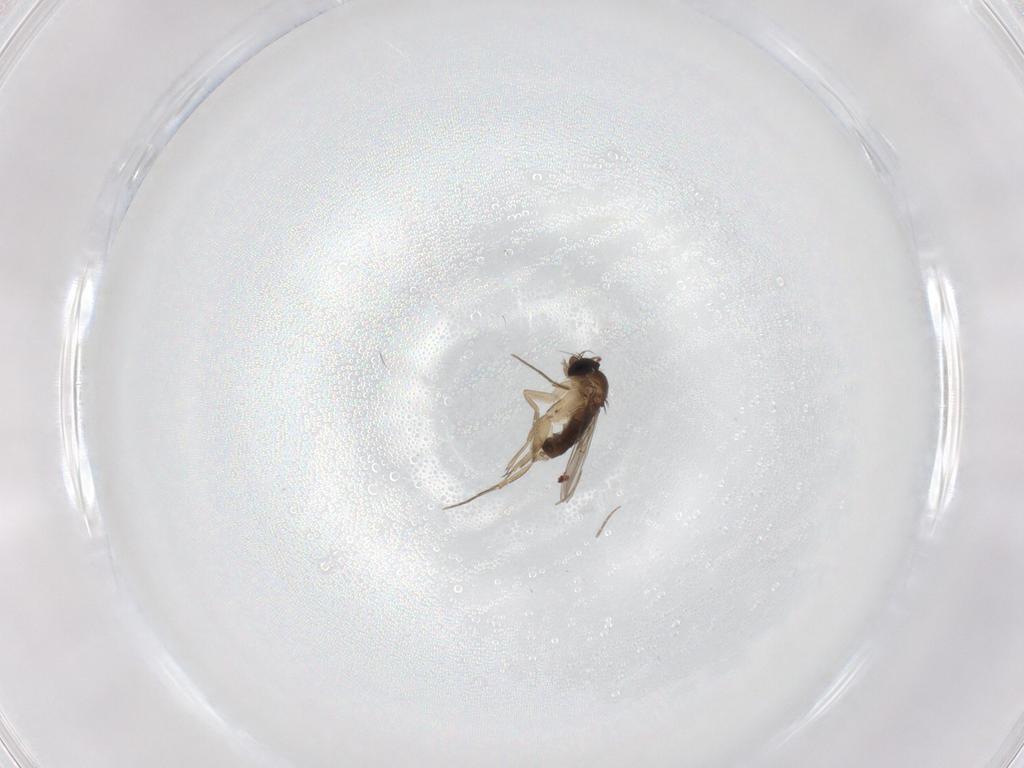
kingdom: Animalia
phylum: Arthropoda
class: Insecta
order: Diptera
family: Phoridae
